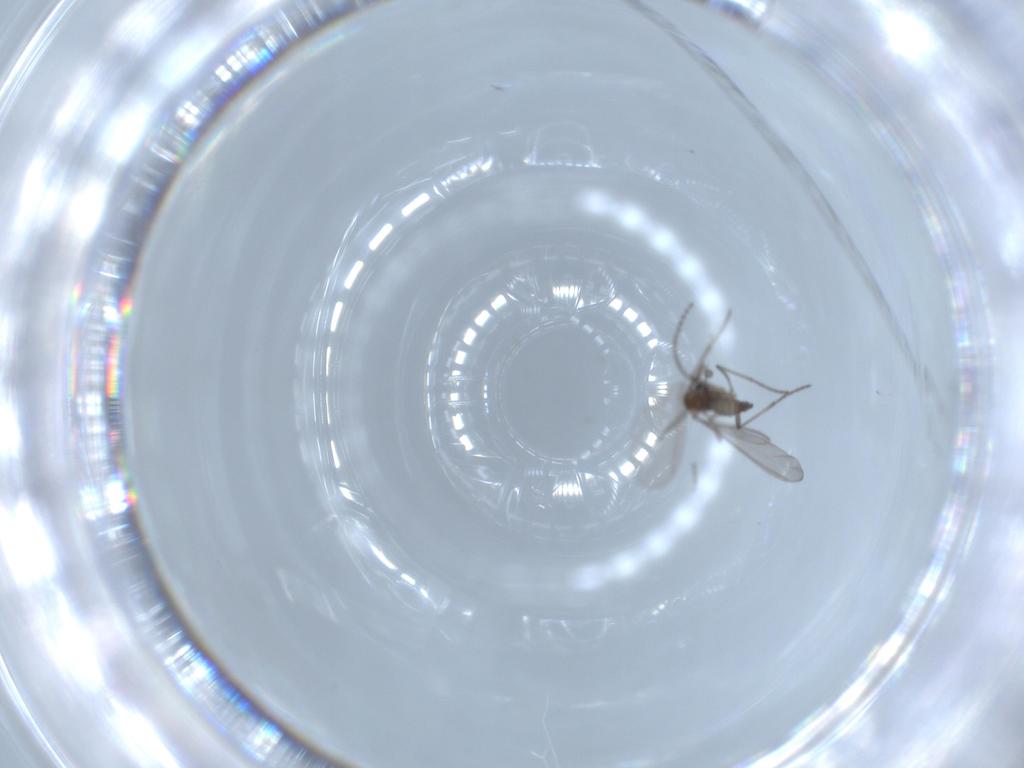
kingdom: Animalia
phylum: Arthropoda
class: Insecta
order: Diptera
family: Sciaridae
